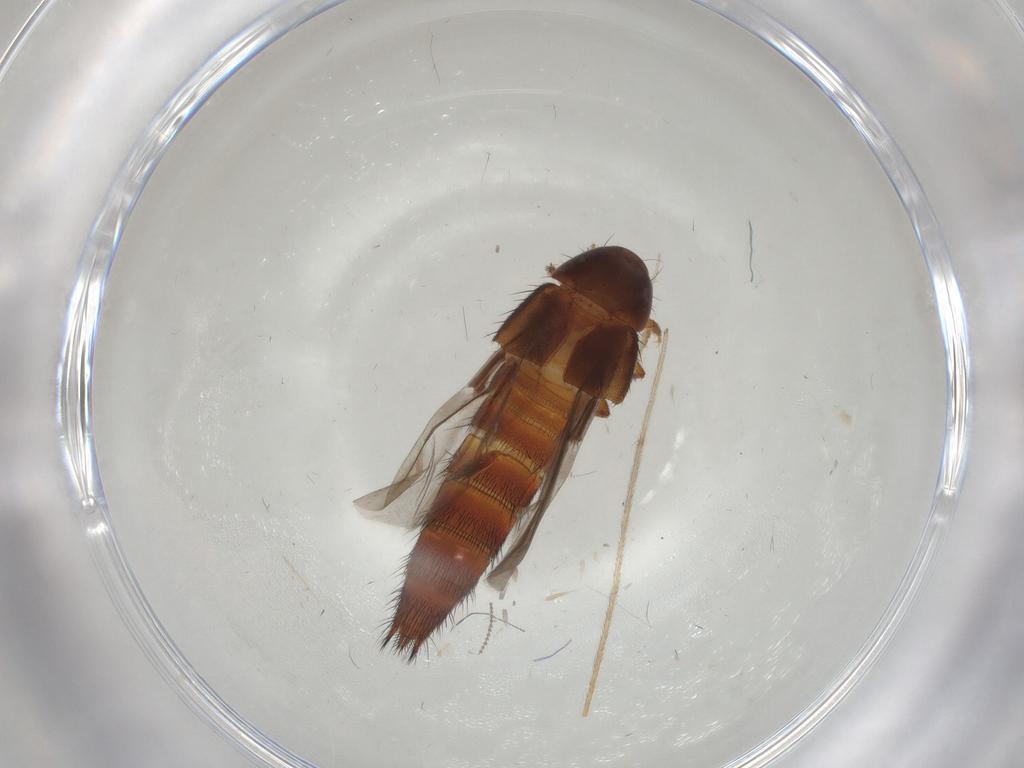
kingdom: Animalia
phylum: Arthropoda
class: Insecta
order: Coleoptera
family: Staphylinidae
